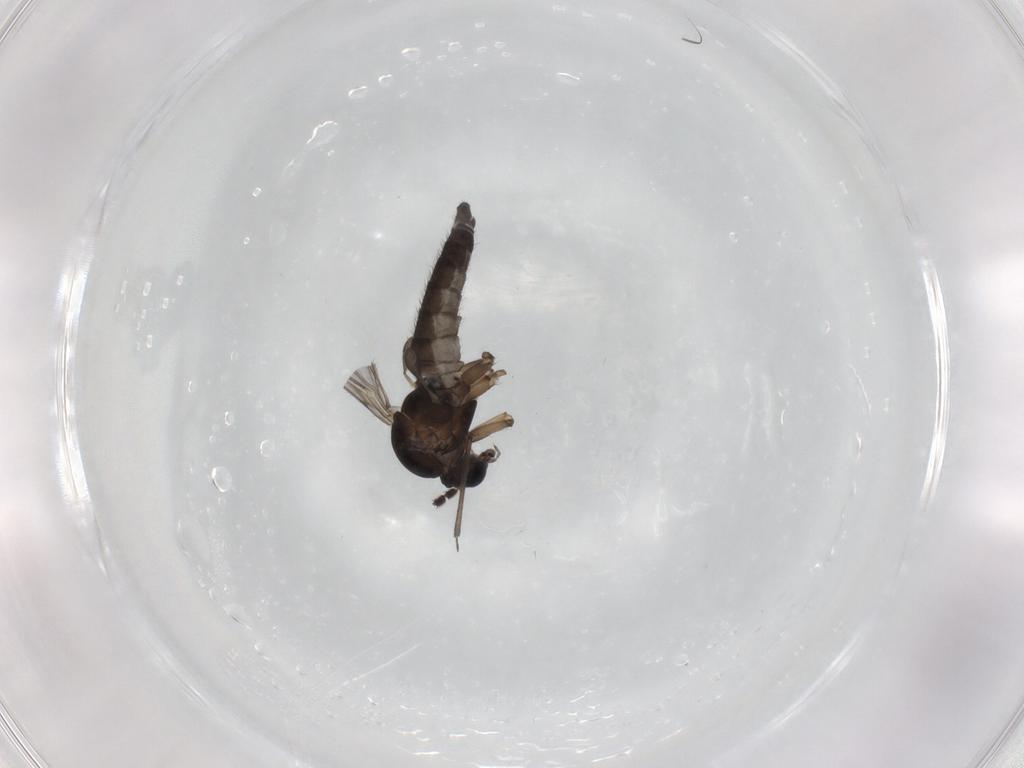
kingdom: Animalia
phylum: Arthropoda
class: Insecta
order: Diptera
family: Sciaridae
